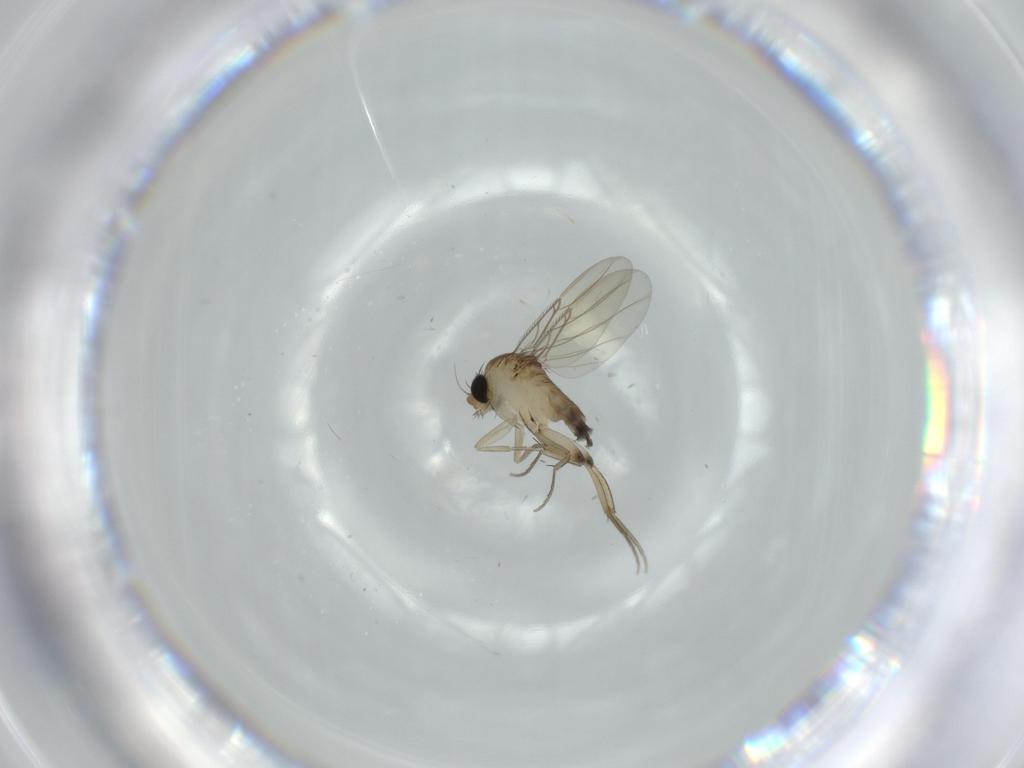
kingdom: Animalia
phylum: Arthropoda
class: Insecta
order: Diptera
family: Phoridae
